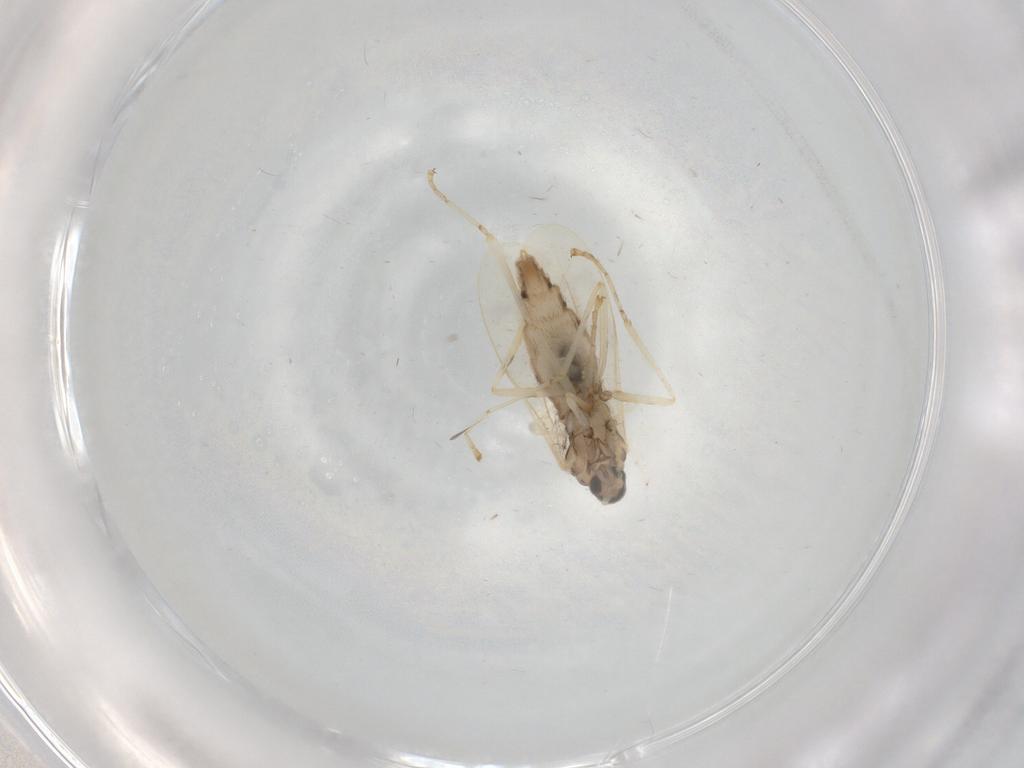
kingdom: Animalia
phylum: Arthropoda
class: Insecta
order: Diptera
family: Cecidomyiidae
